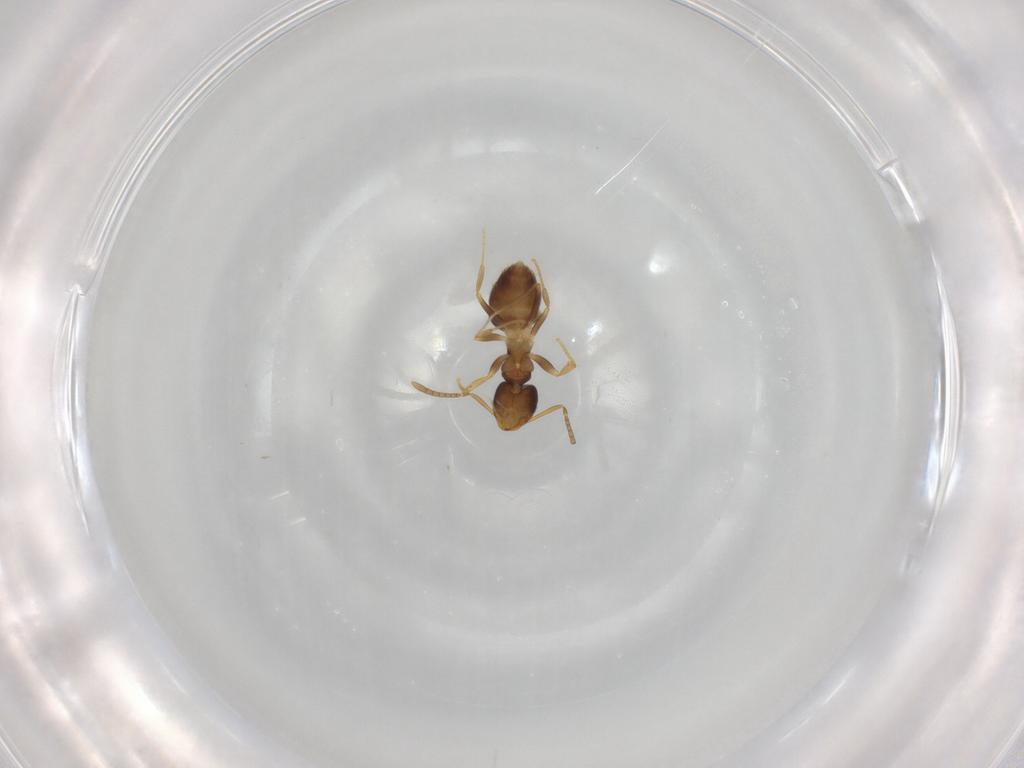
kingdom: Animalia
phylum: Arthropoda
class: Insecta
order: Hymenoptera
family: Formicidae
